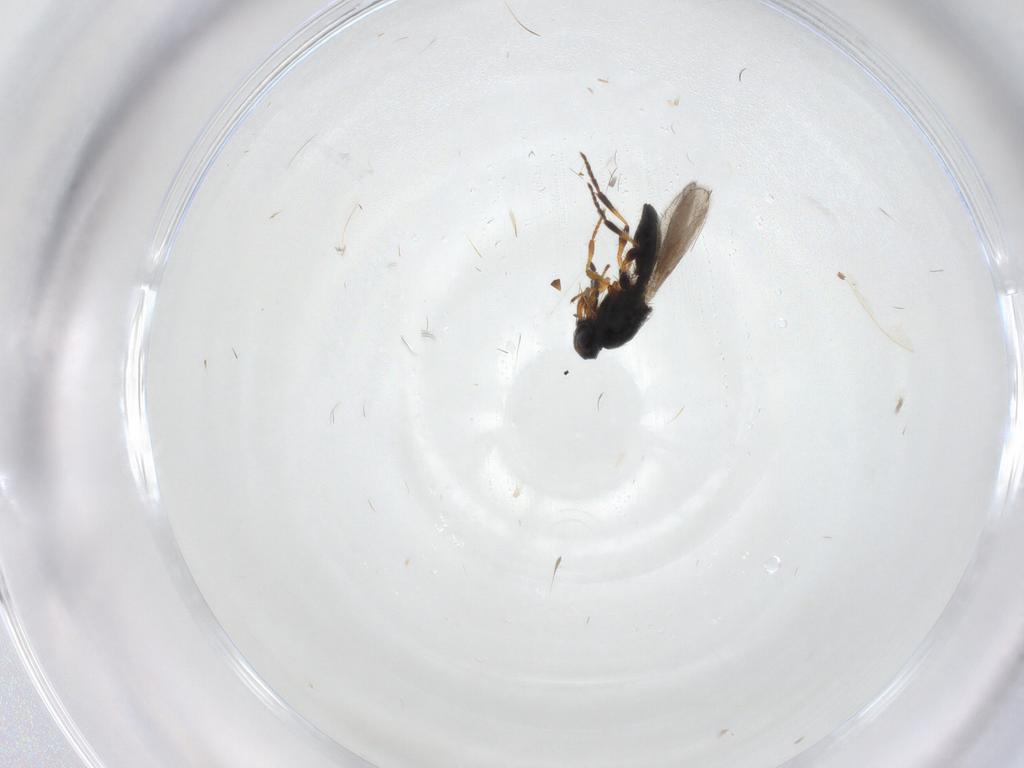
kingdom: Animalia
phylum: Arthropoda
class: Insecta
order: Hymenoptera
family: Platygastridae
